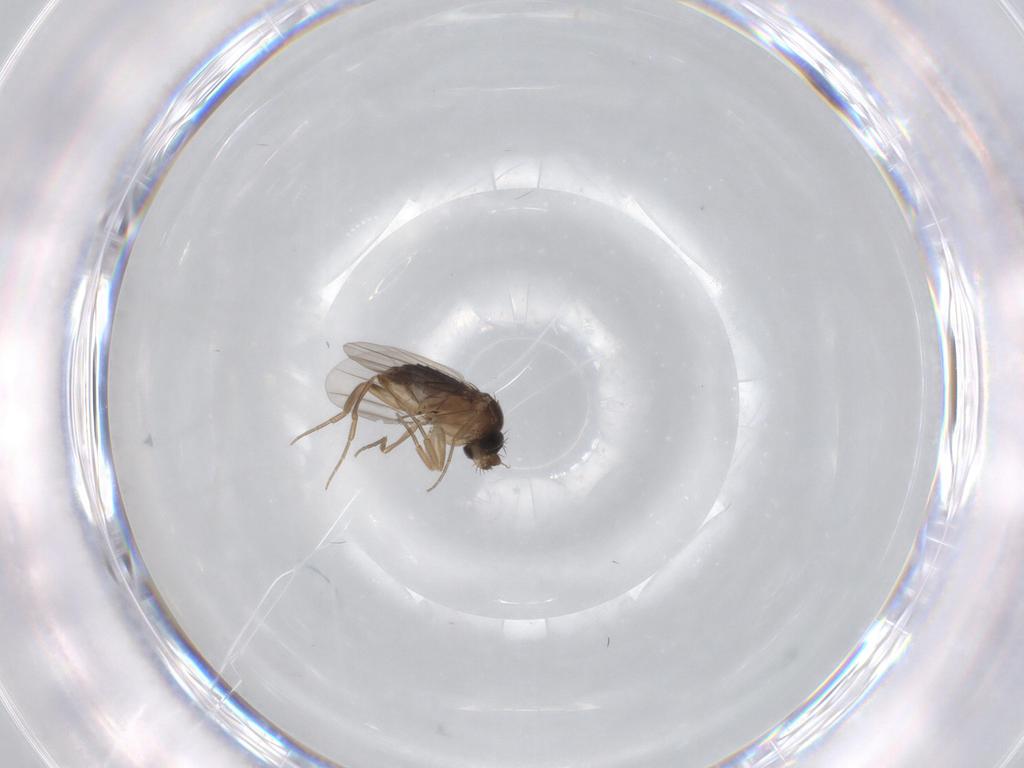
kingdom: Animalia
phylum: Arthropoda
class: Insecta
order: Diptera
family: Phoridae
